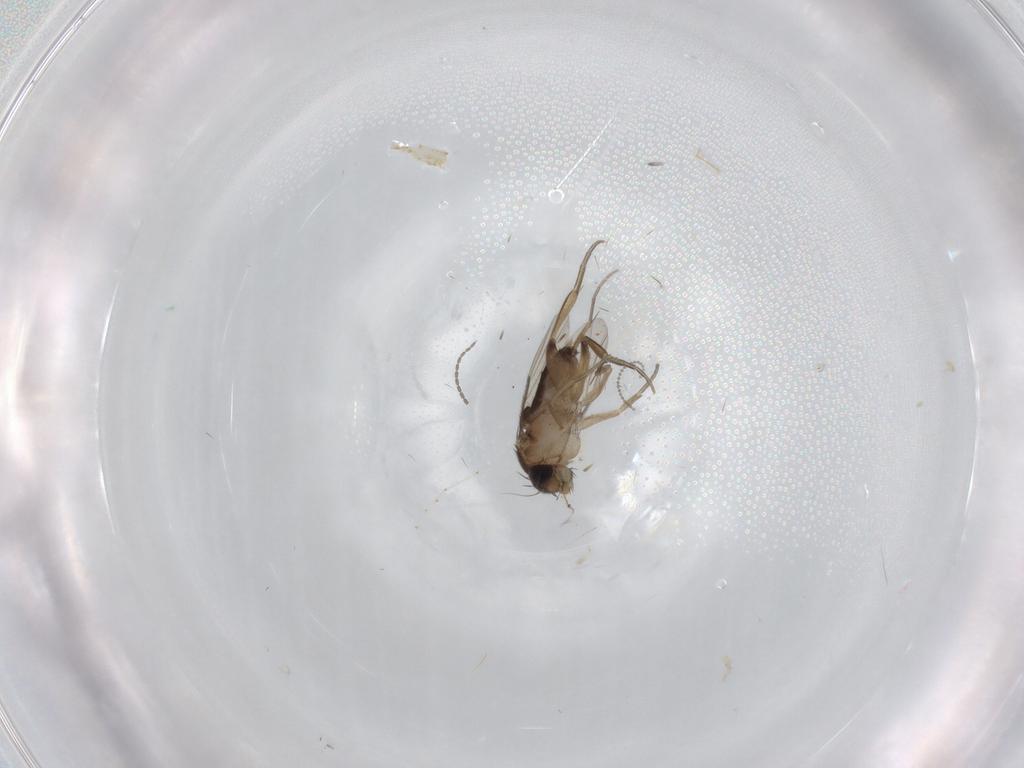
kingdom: Animalia
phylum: Arthropoda
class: Insecta
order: Diptera
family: Phoridae
